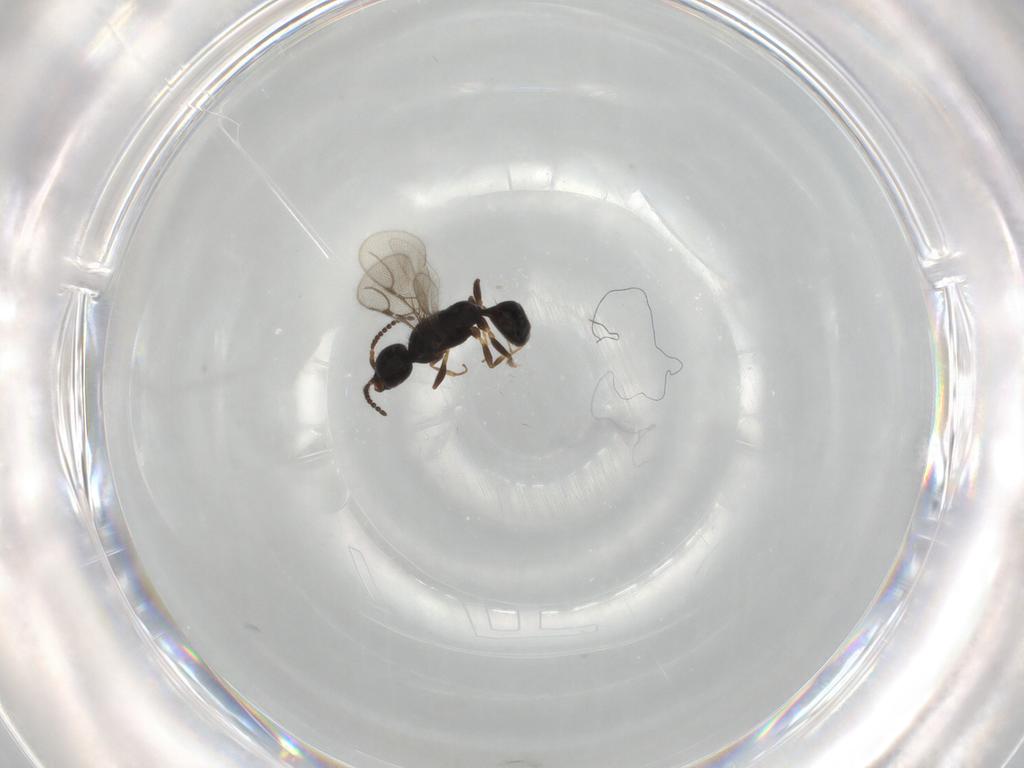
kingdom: Animalia
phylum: Arthropoda
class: Insecta
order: Hymenoptera
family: Bethylidae
